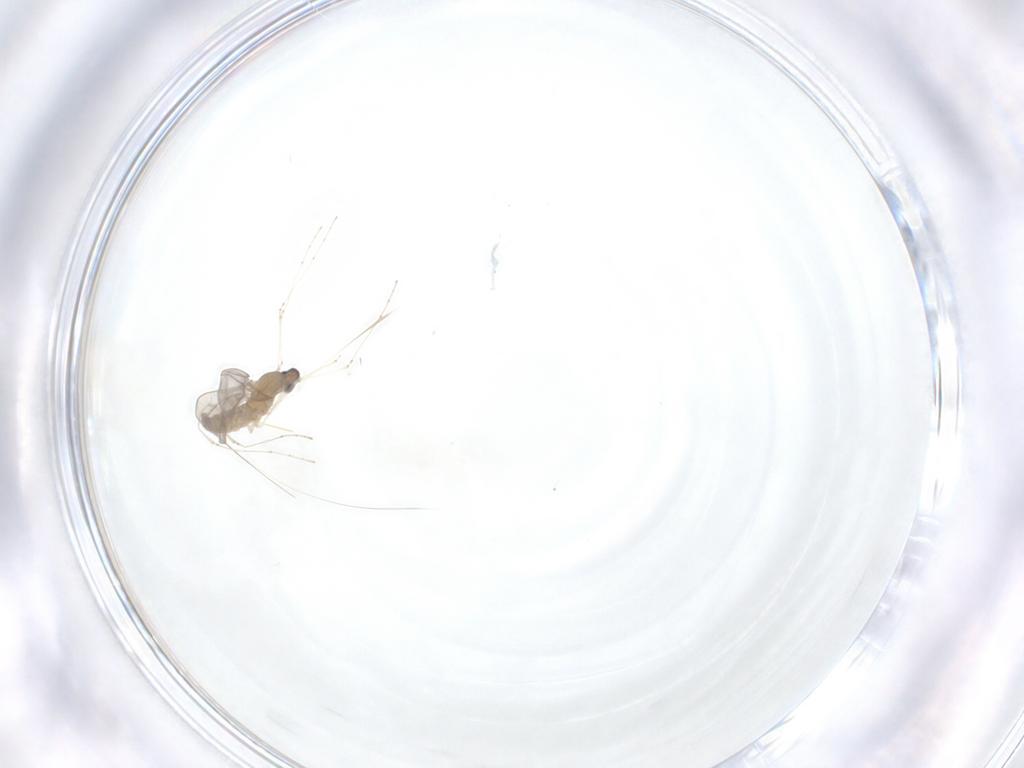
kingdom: Animalia
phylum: Arthropoda
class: Insecta
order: Diptera
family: Cecidomyiidae
